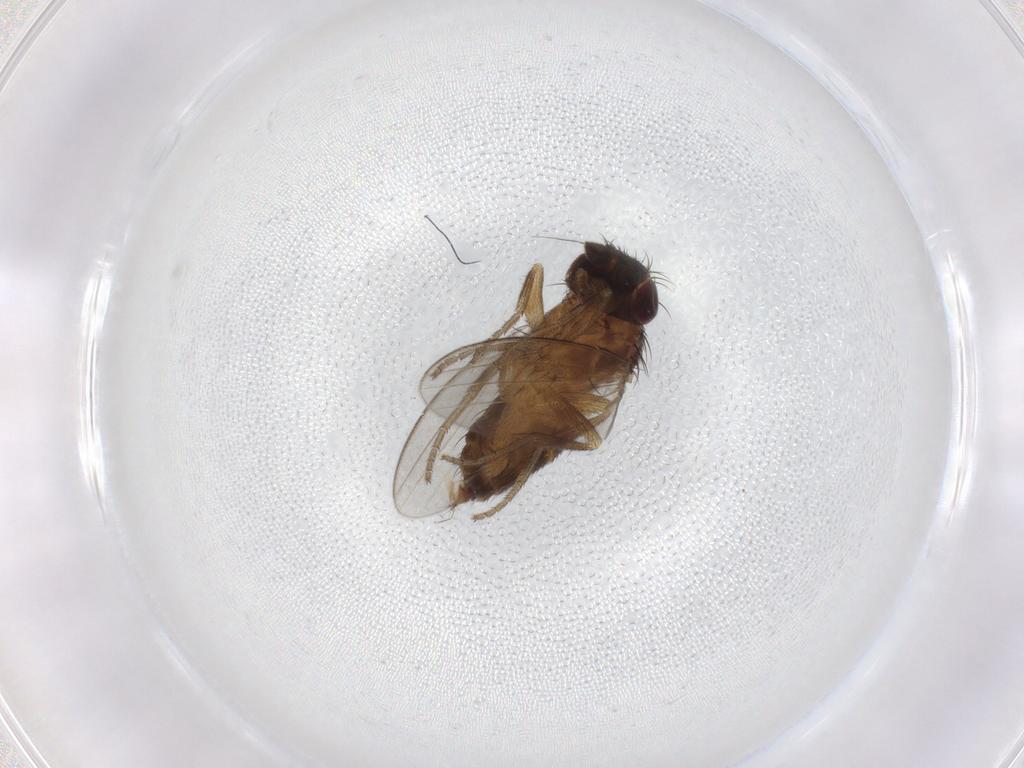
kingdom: Animalia
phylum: Arthropoda
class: Insecta
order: Diptera
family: Milichiidae
